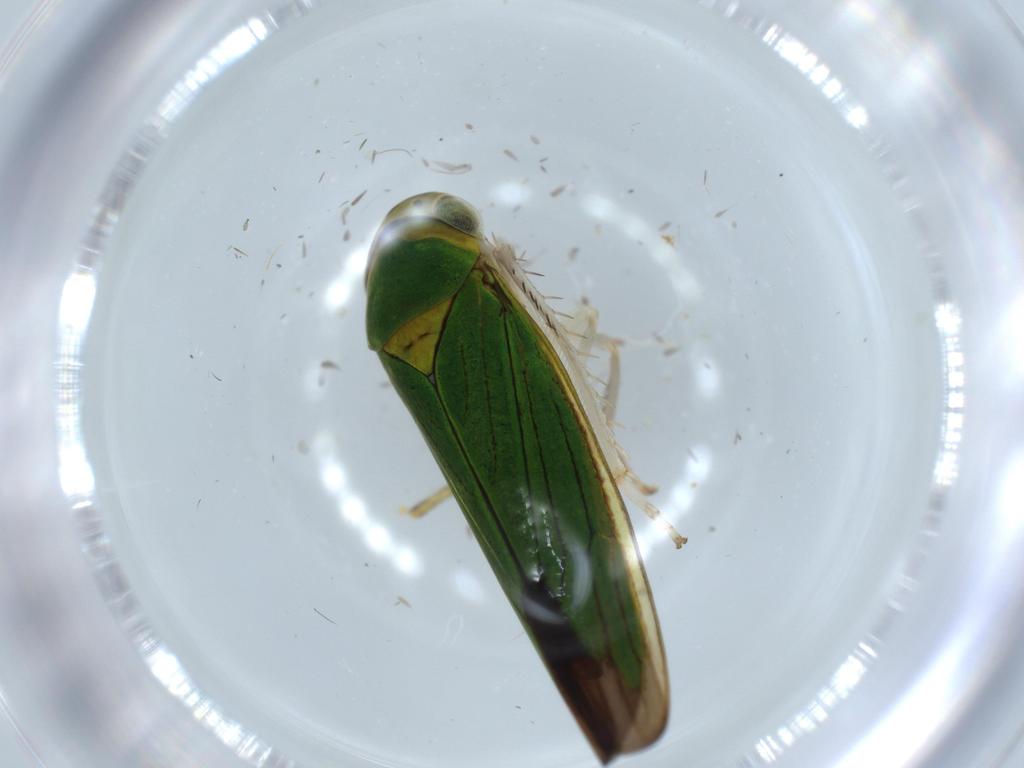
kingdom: Animalia
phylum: Arthropoda
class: Insecta
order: Hemiptera
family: Cicadellidae
